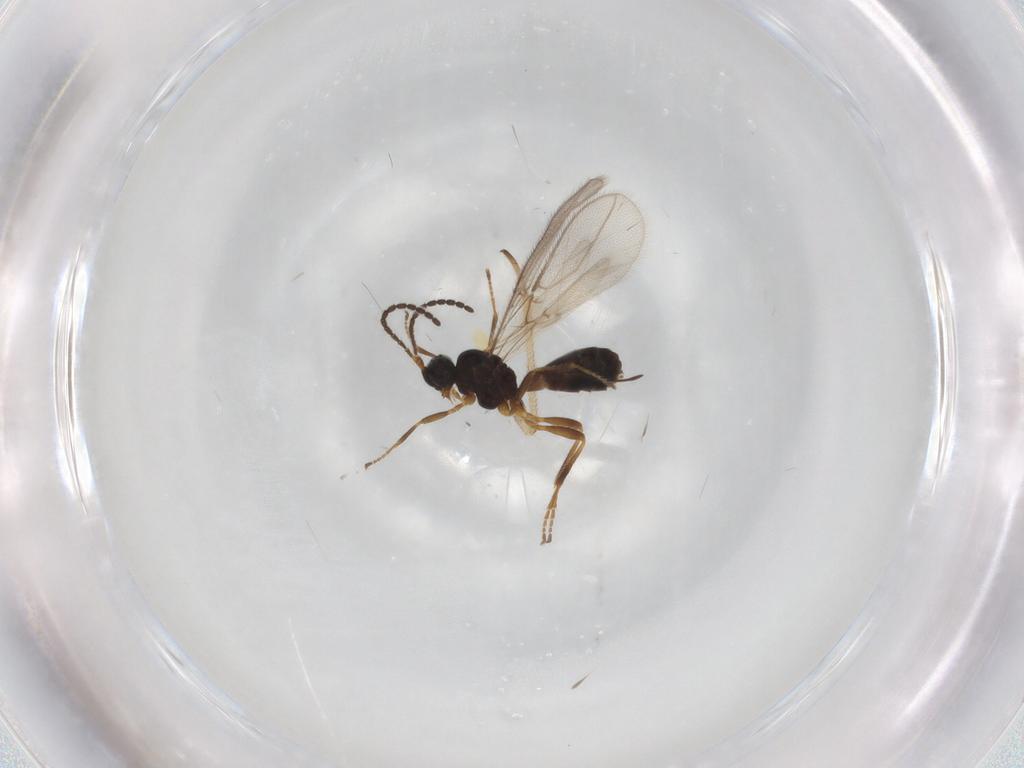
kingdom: Animalia
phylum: Arthropoda
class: Insecta
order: Hymenoptera
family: Braconidae
